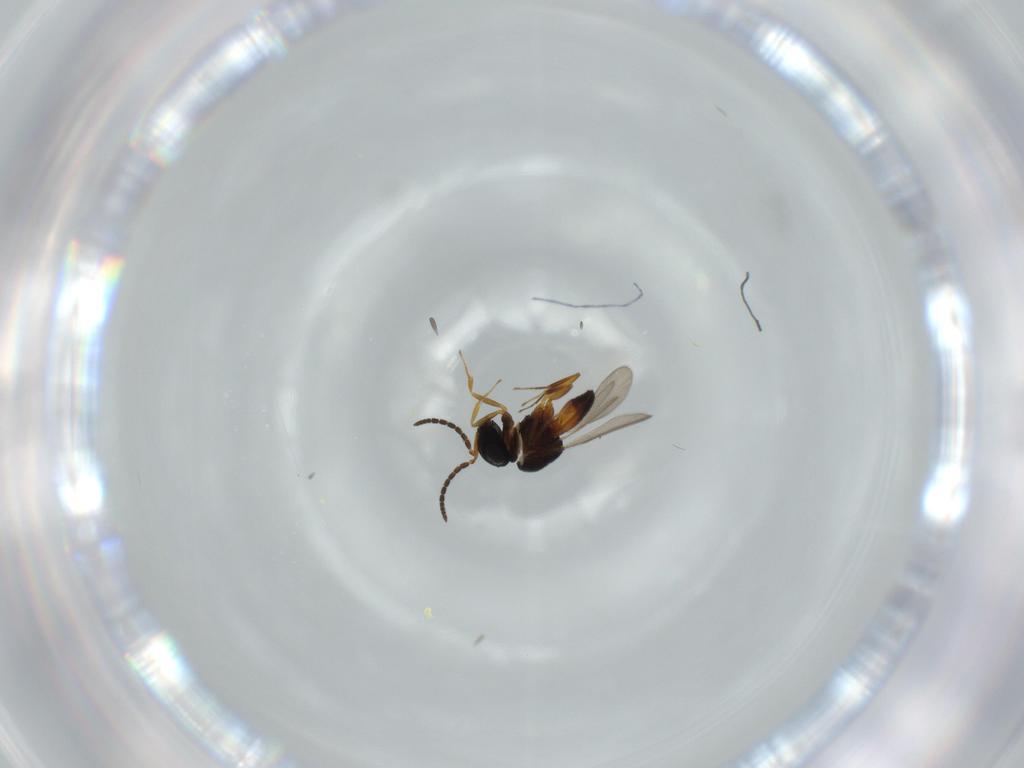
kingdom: Animalia
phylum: Arthropoda
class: Insecta
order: Hymenoptera
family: Scelionidae
